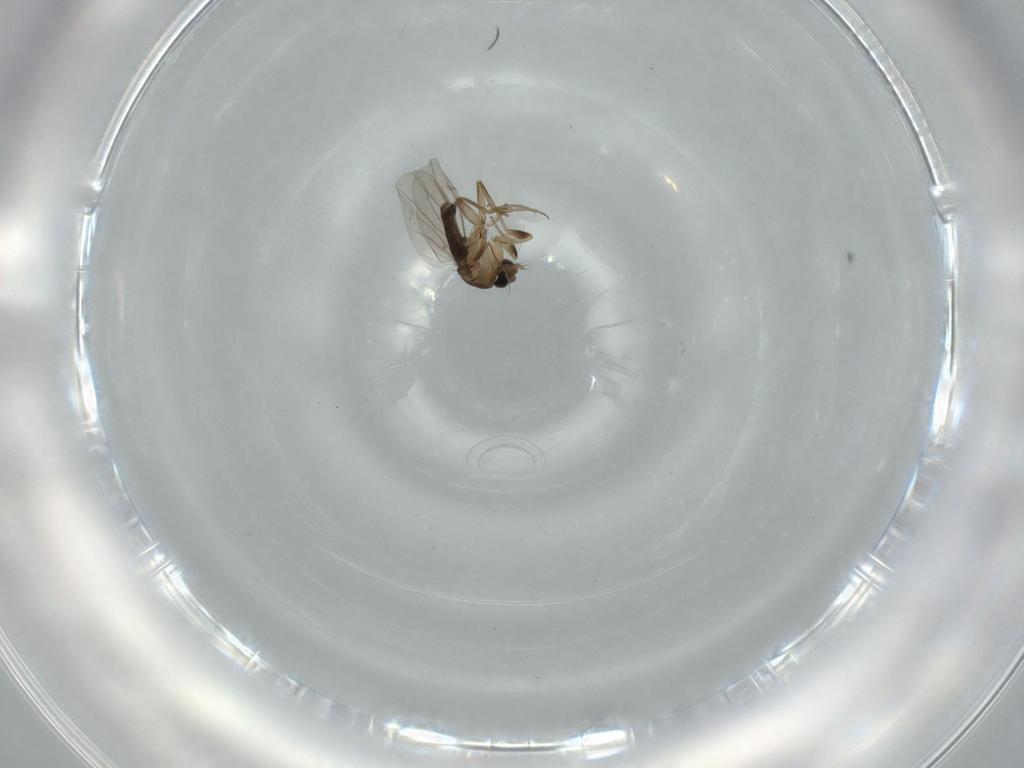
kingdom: Animalia
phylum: Arthropoda
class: Insecta
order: Diptera
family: Phoridae
